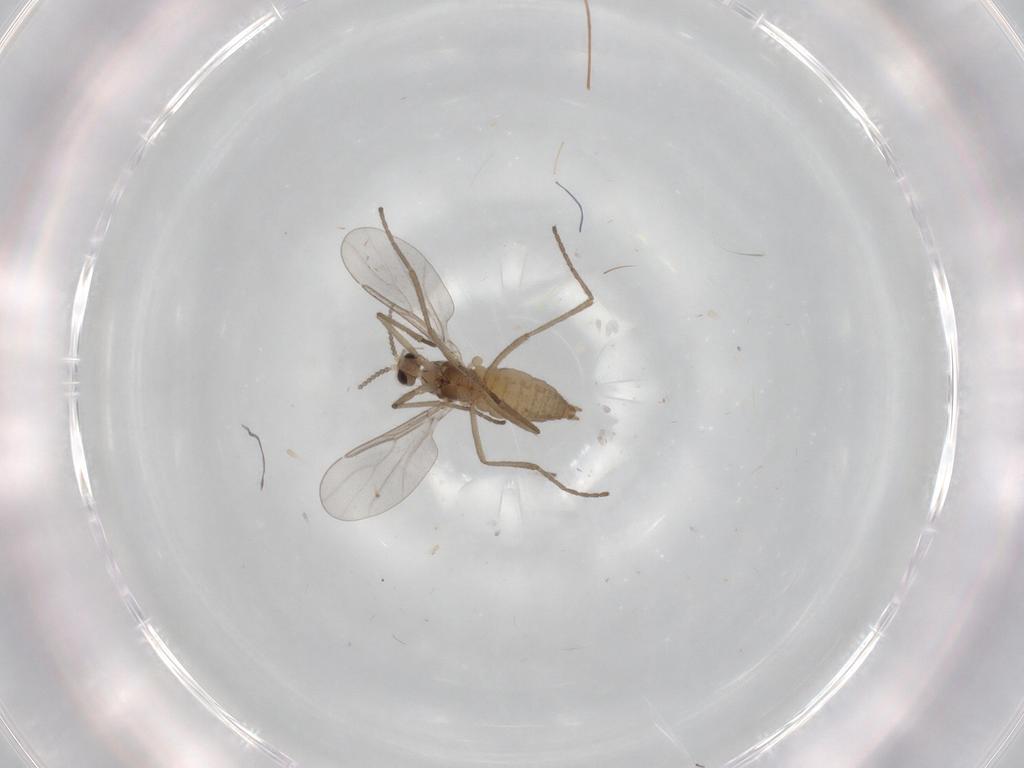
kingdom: Animalia
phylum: Arthropoda
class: Insecta
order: Diptera
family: Cecidomyiidae
